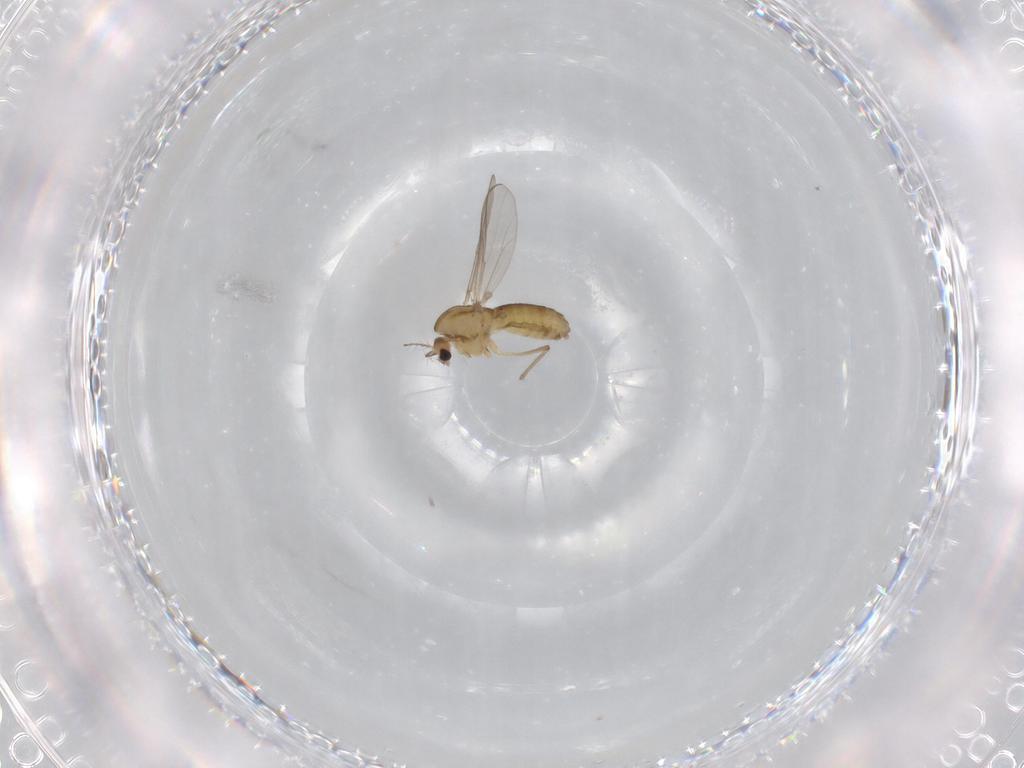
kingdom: Animalia
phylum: Arthropoda
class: Insecta
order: Diptera
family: Chironomidae
